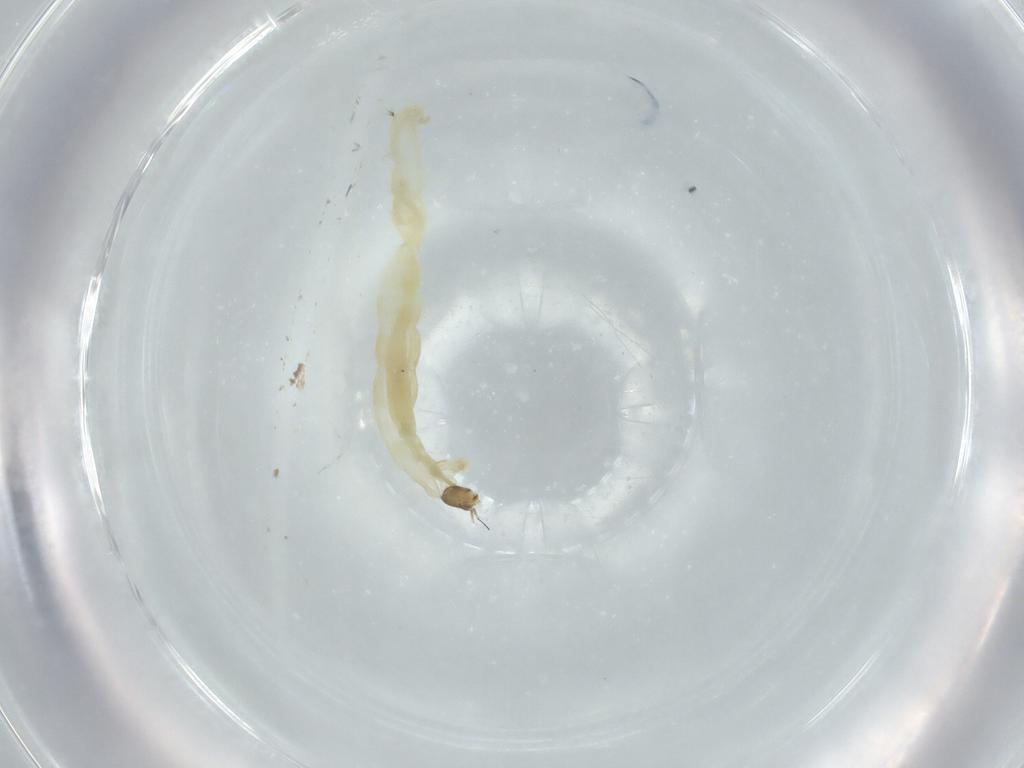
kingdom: Animalia
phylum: Arthropoda
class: Insecta
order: Diptera
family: Chironomidae
